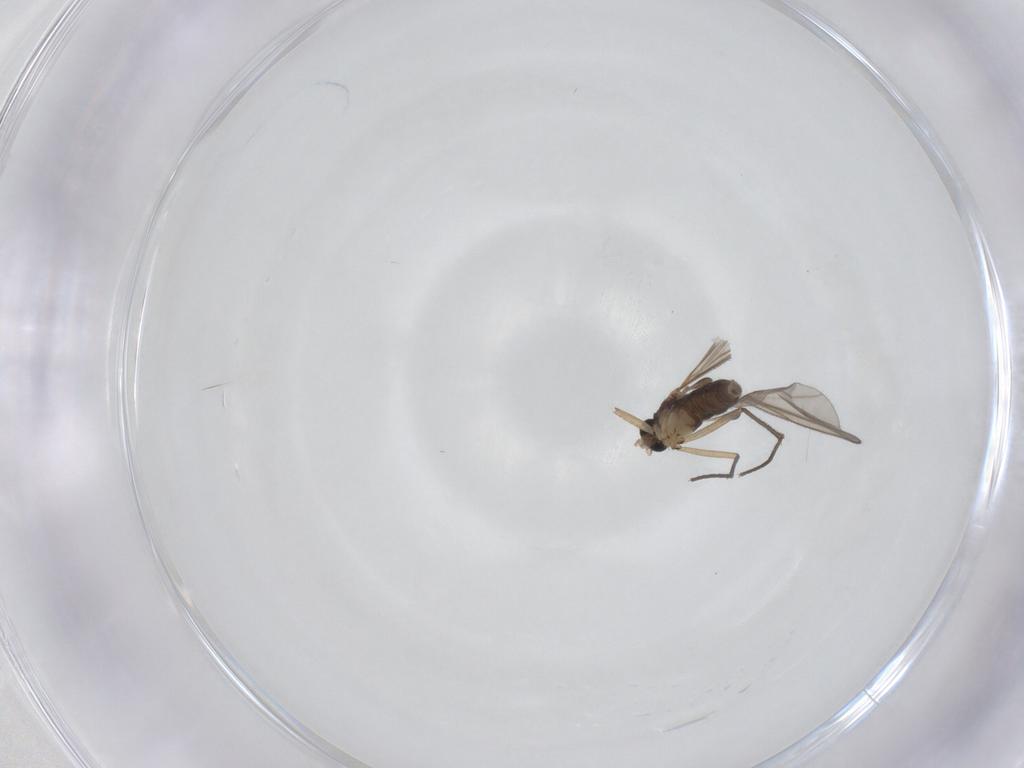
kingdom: Animalia
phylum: Arthropoda
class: Insecta
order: Diptera
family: Sciaridae
